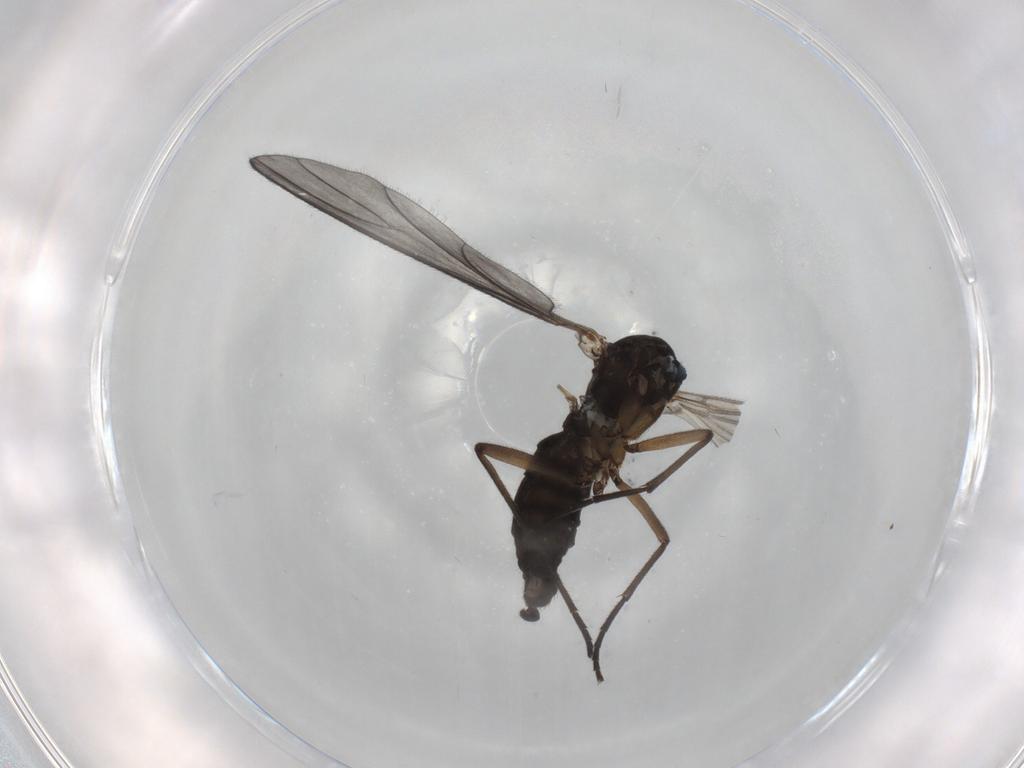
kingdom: Animalia
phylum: Arthropoda
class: Insecta
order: Diptera
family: Sciaridae
